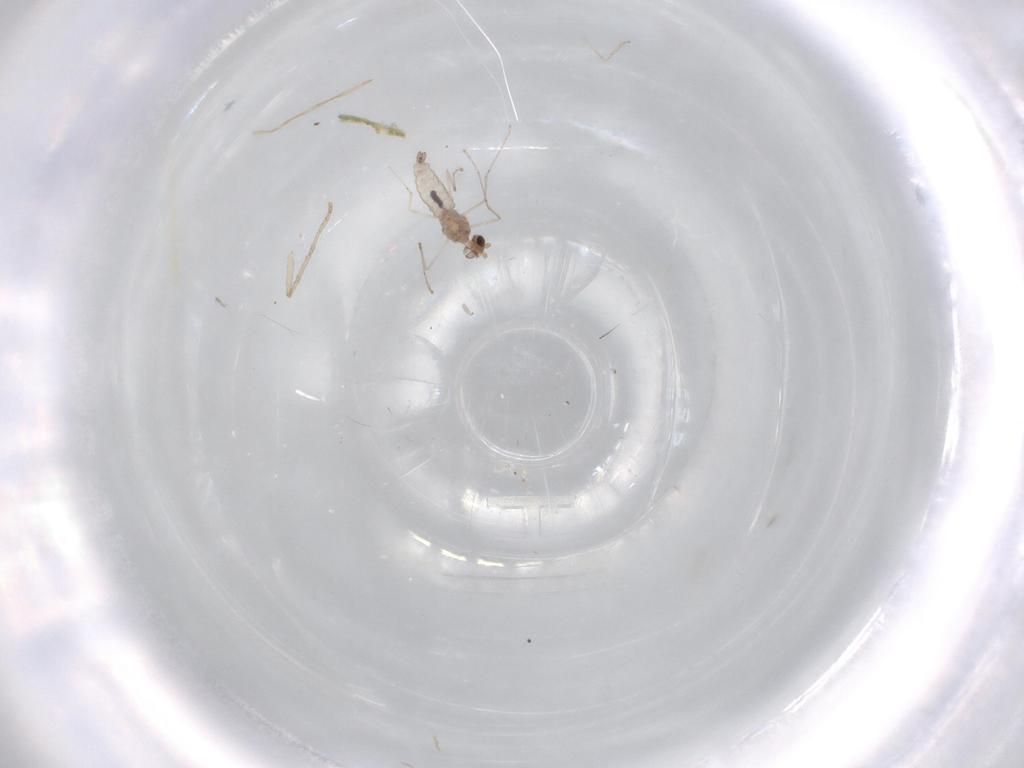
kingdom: Animalia
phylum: Arthropoda
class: Insecta
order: Diptera
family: Cecidomyiidae
